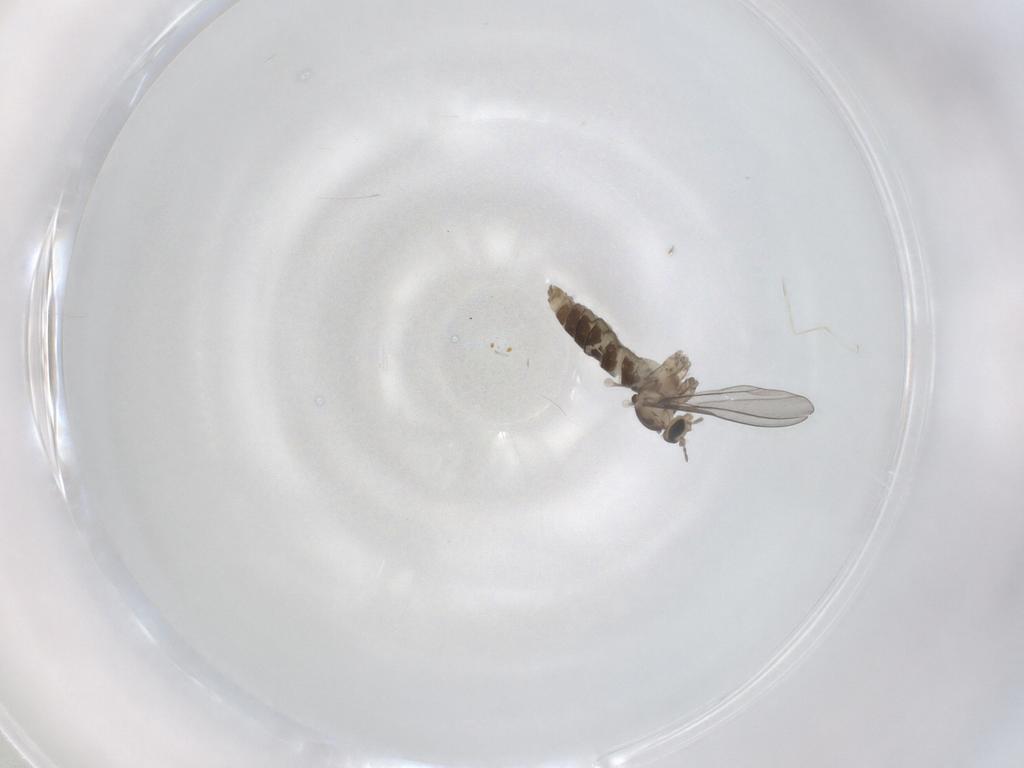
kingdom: Animalia
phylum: Arthropoda
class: Insecta
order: Diptera
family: Cecidomyiidae
